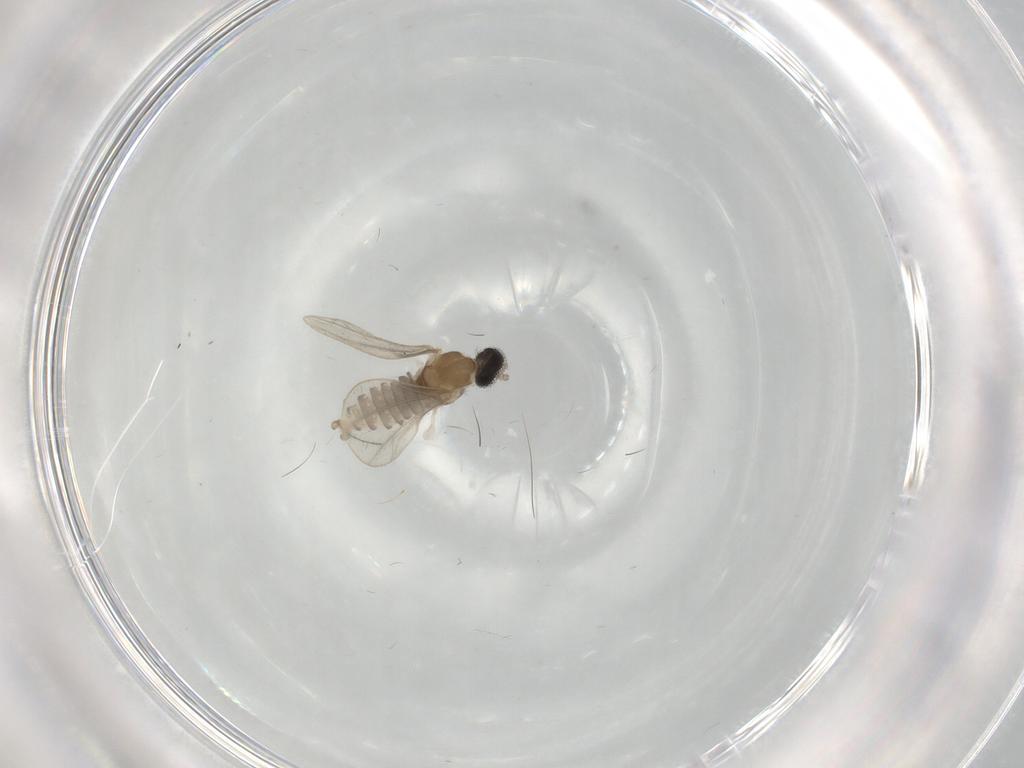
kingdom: Animalia
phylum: Arthropoda
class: Insecta
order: Diptera
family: Cecidomyiidae
